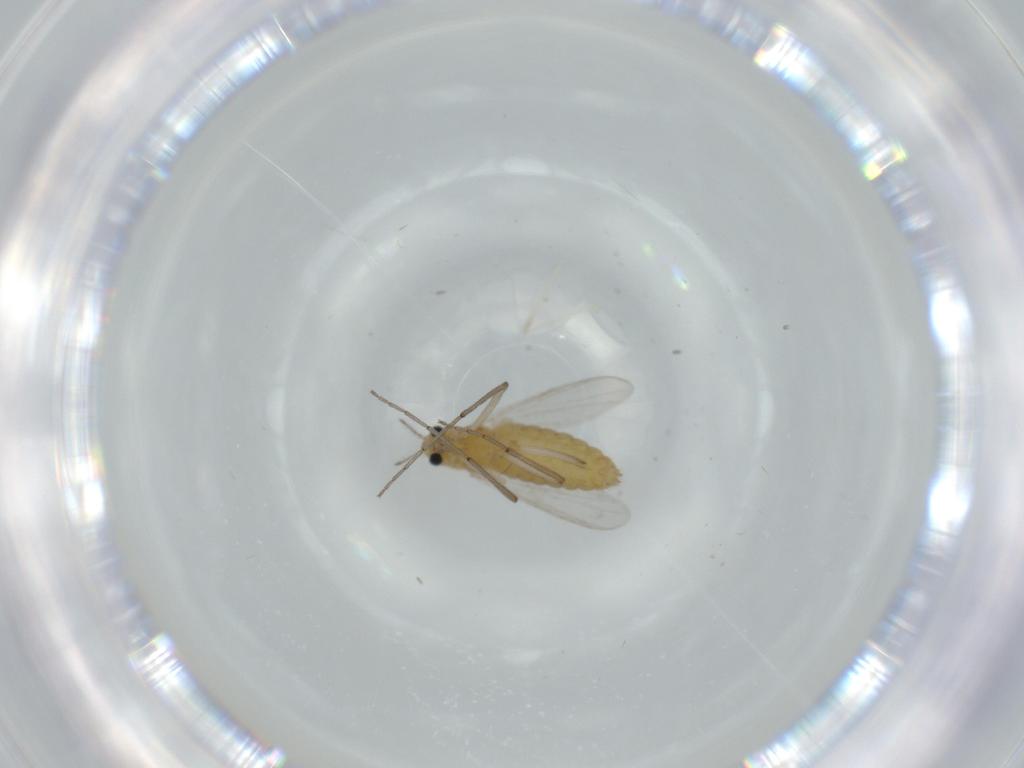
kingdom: Animalia
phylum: Arthropoda
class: Insecta
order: Diptera
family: Chironomidae
